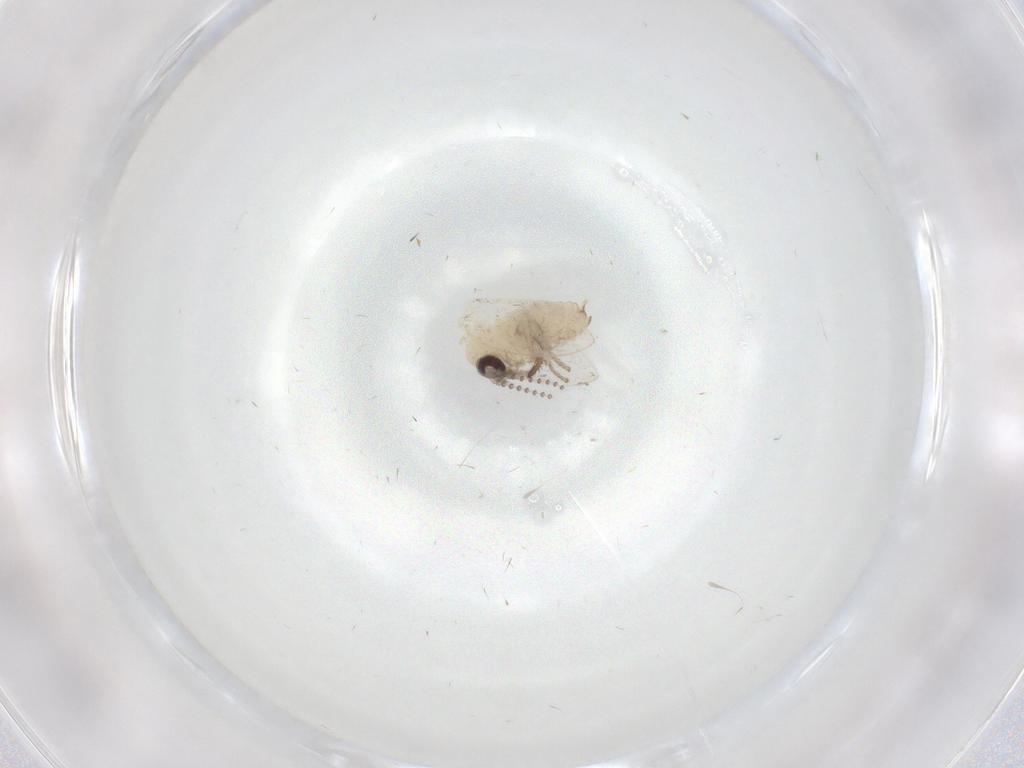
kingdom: Animalia
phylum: Arthropoda
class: Insecta
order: Diptera
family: Psychodidae
